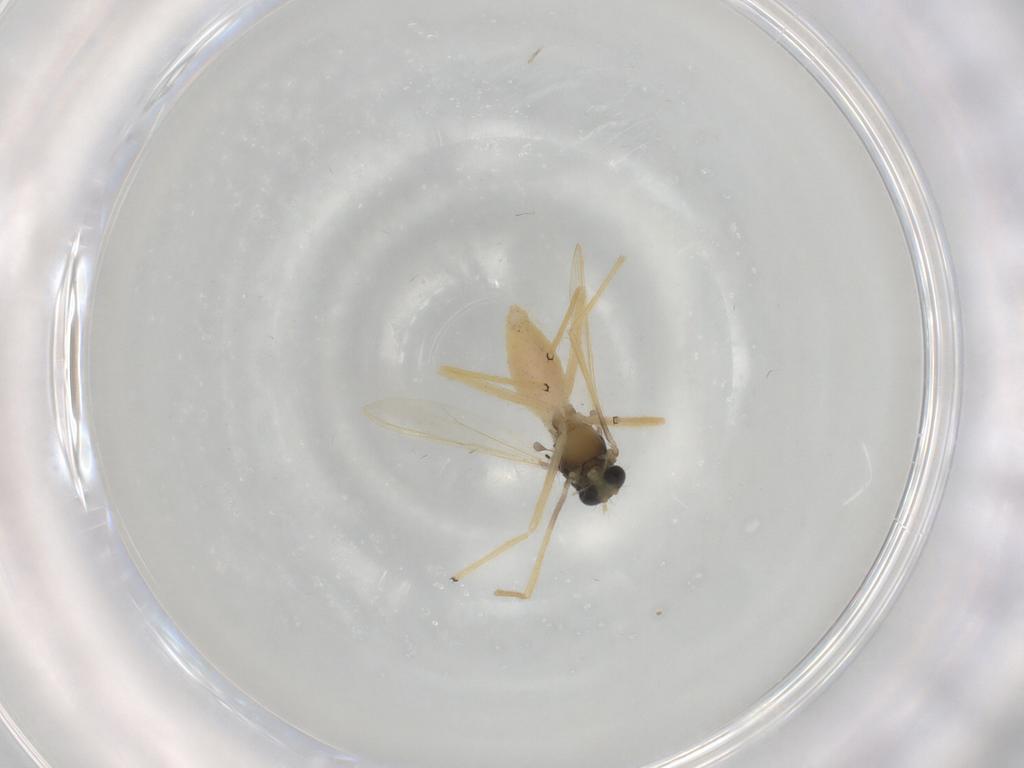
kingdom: Animalia
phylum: Arthropoda
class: Insecta
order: Diptera
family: Chironomidae
